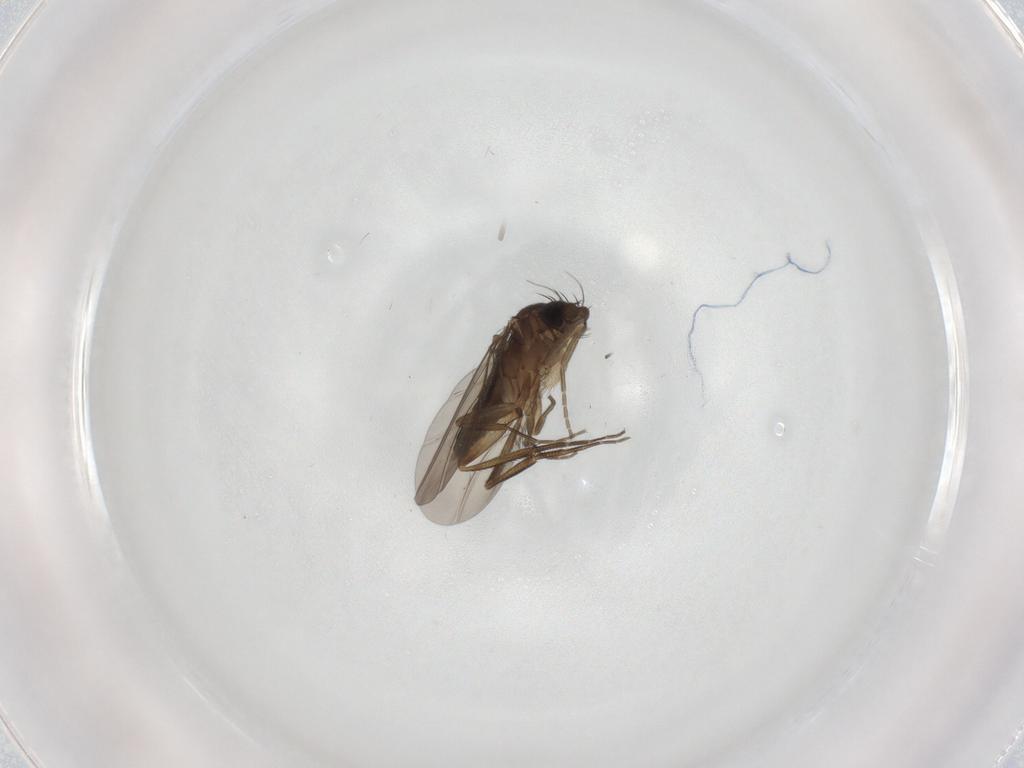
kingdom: Animalia
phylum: Arthropoda
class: Insecta
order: Diptera
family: Phoridae
